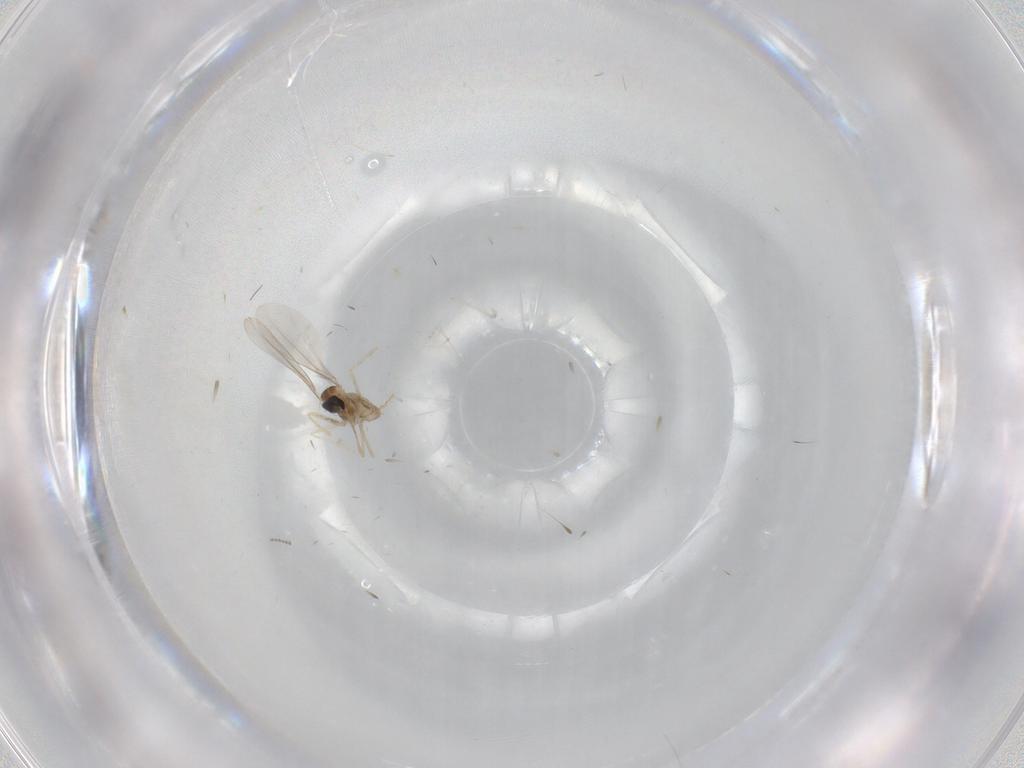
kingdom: Animalia
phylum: Arthropoda
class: Insecta
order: Diptera
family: Cecidomyiidae
